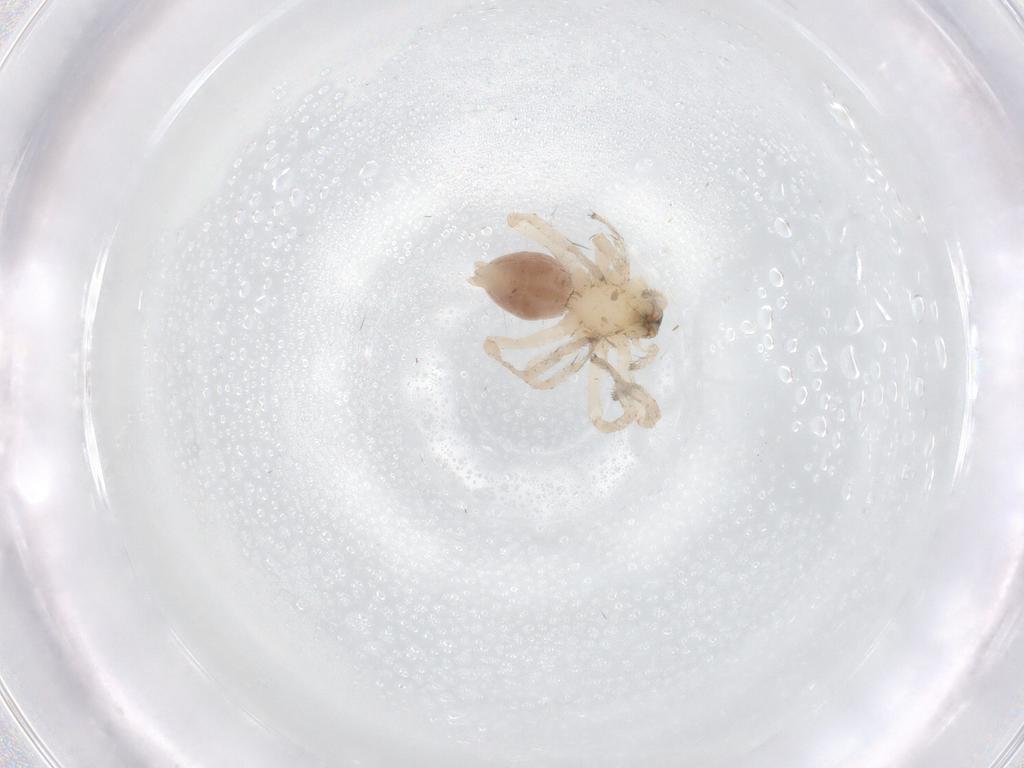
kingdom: Animalia
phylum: Arthropoda
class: Arachnida
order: Araneae
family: Anyphaenidae
